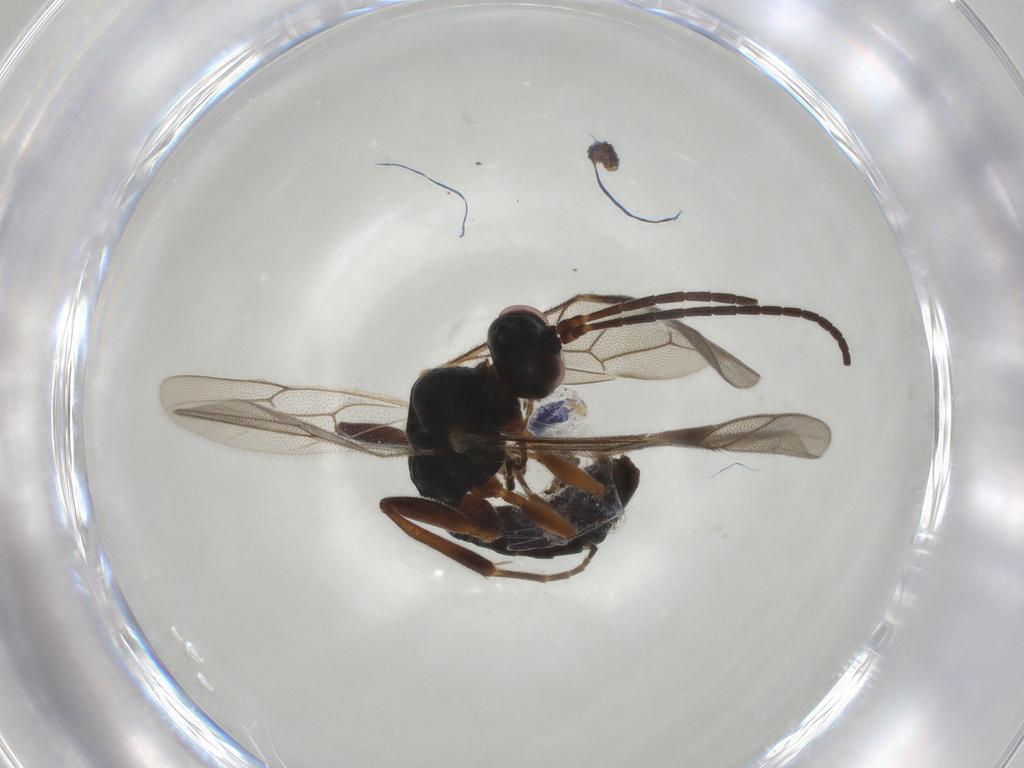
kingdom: Animalia
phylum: Arthropoda
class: Insecta
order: Hymenoptera
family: Ichneumonidae
